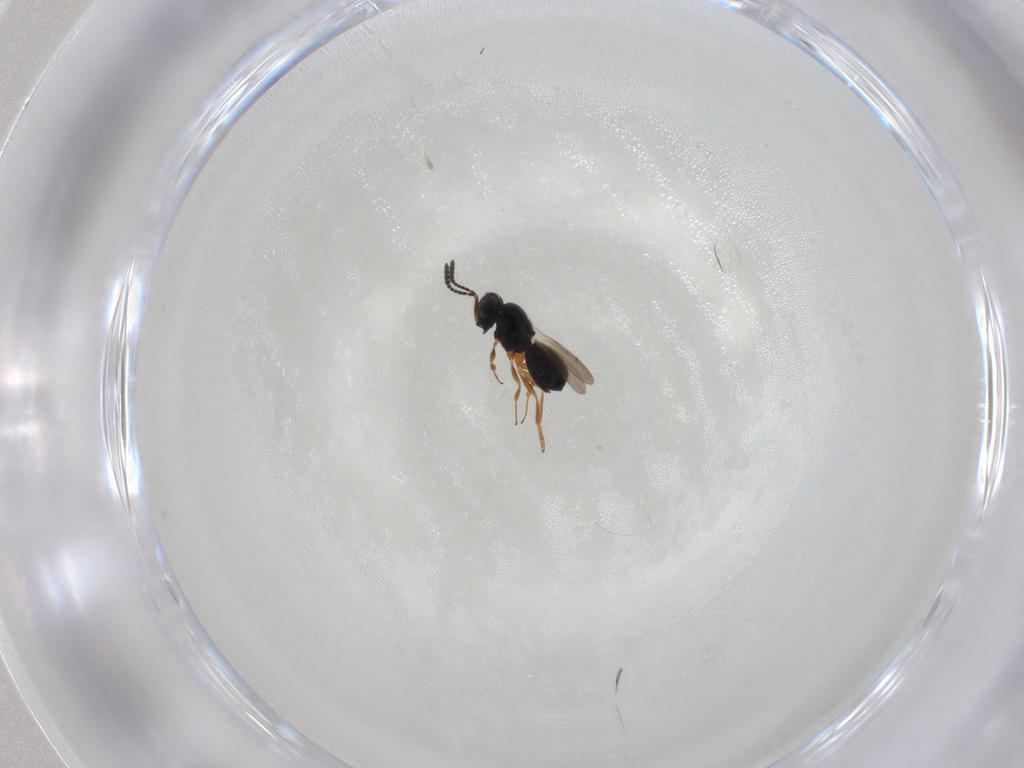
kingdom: Animalia
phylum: Arthropoda
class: Insecta
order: Hymenoptera
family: Scelionidae
